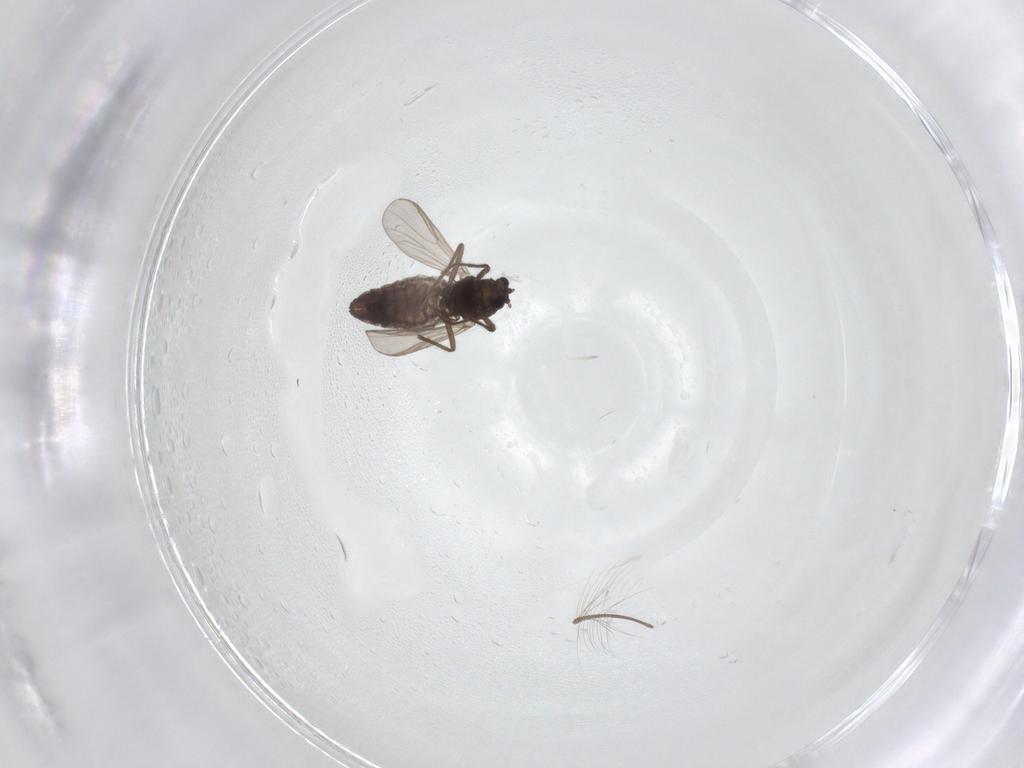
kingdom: Animalia
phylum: Arthropoda
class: Insecta
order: Diptera
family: Chironomidae
